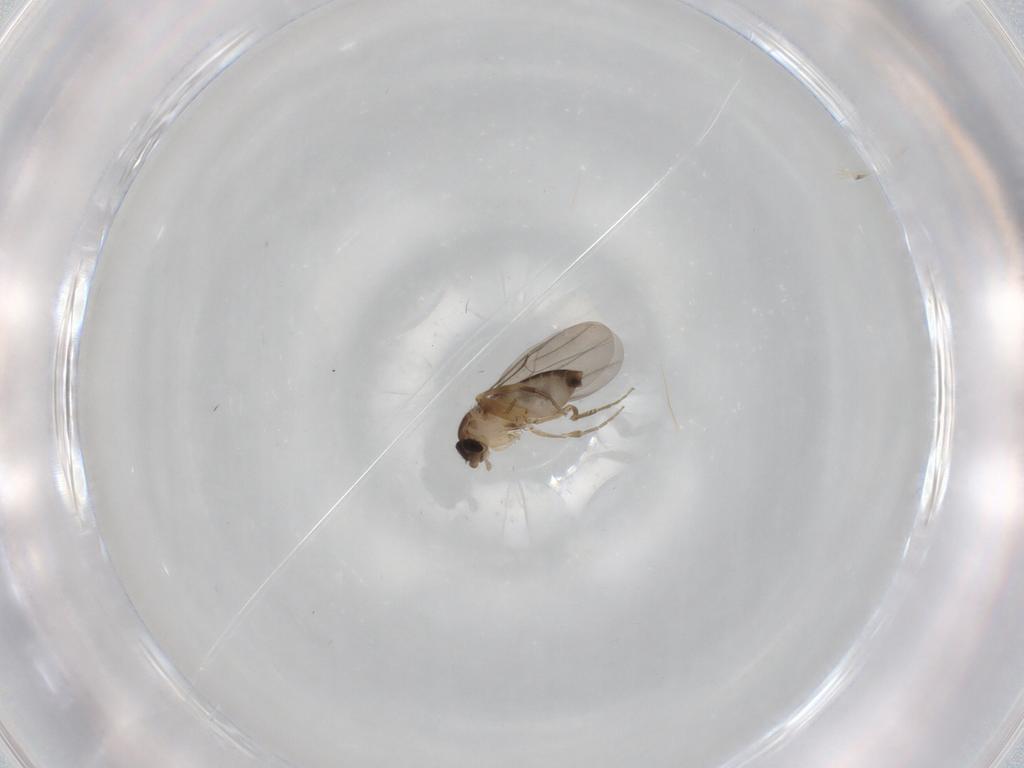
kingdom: Animalia
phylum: Arthropoda
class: Insecta
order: Diptera
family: Phoridae
